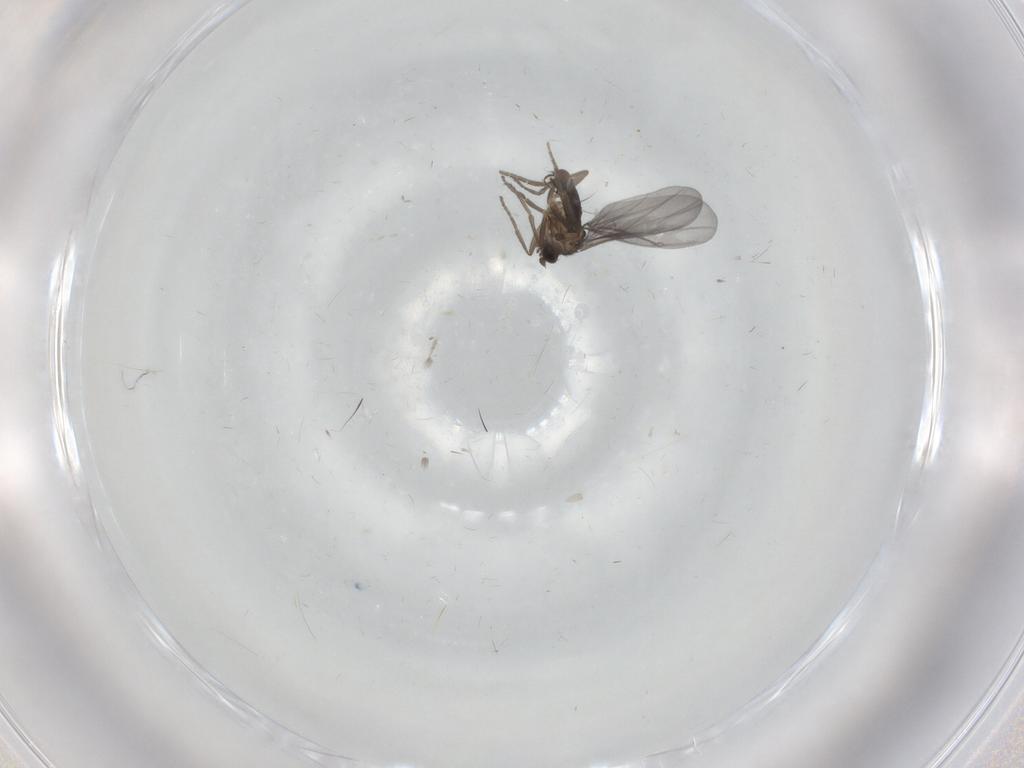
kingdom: Animalia
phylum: Arthropoda
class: Insecta
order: Diptera
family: Phoridae
